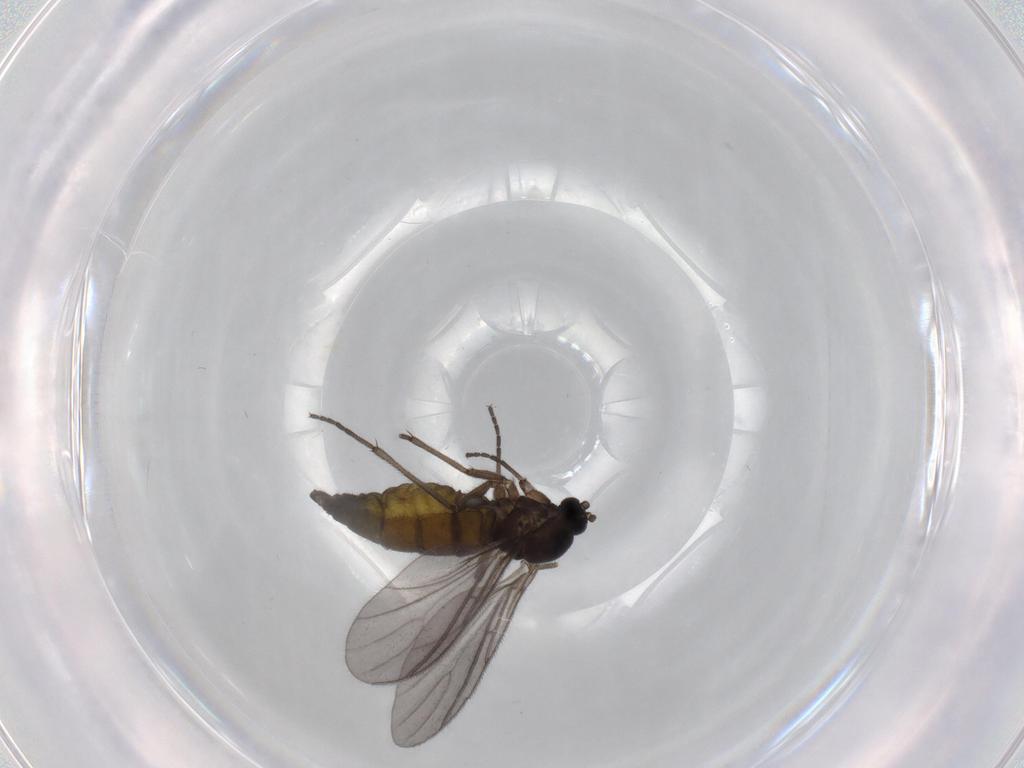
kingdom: Animalia
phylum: Arthropoda
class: Insecta
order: Diptera
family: Sciaridae
